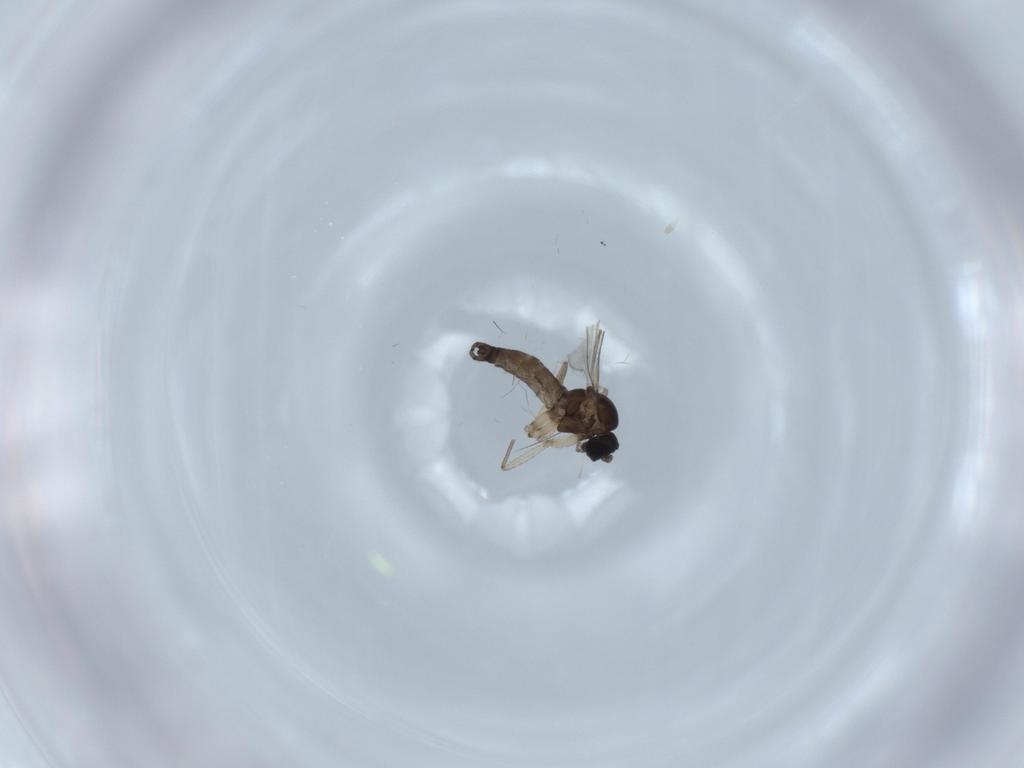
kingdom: Animalia
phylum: Arthropoda
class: Insecta
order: Diptera
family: Sciaridae
